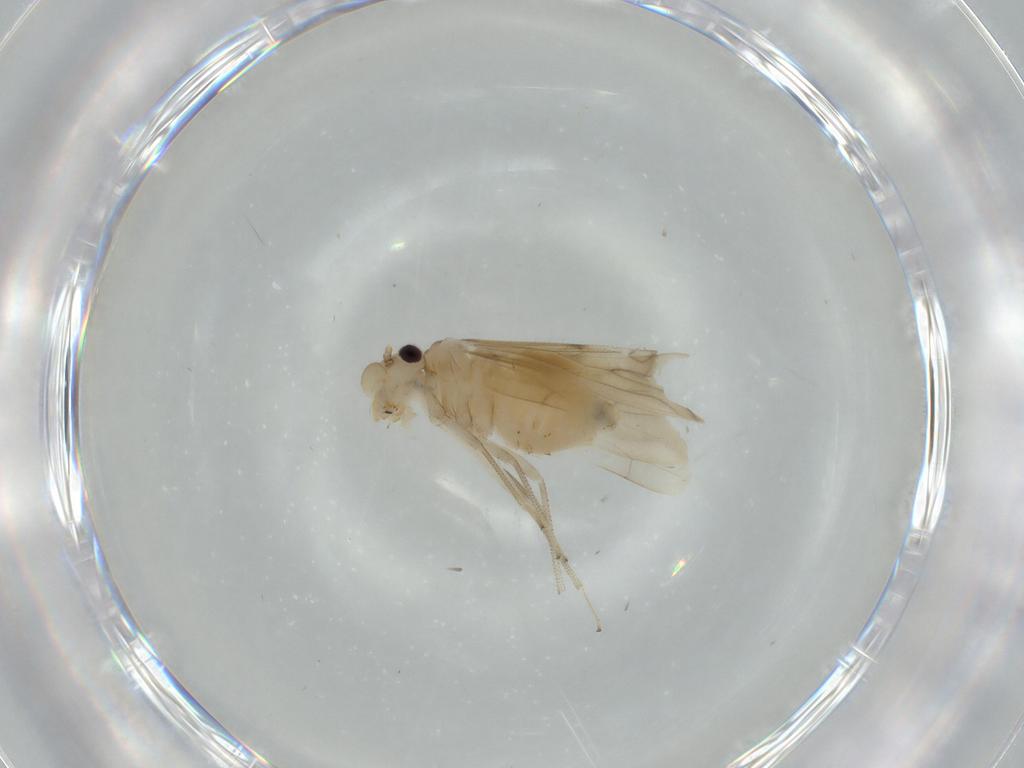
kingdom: Animalia
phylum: Arthropoda
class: Insecta
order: Psocodea
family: Caeciliusidae
